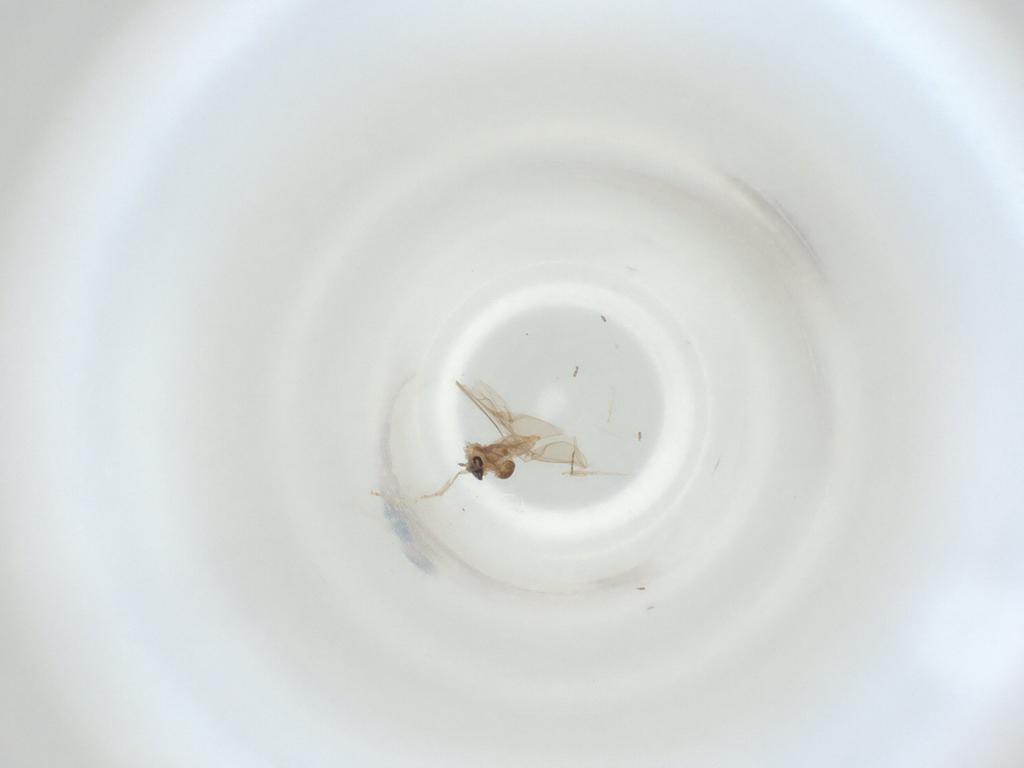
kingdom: Animalia
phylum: Arthropoda
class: Insecta
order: Diptera
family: Cecidomyiidae
